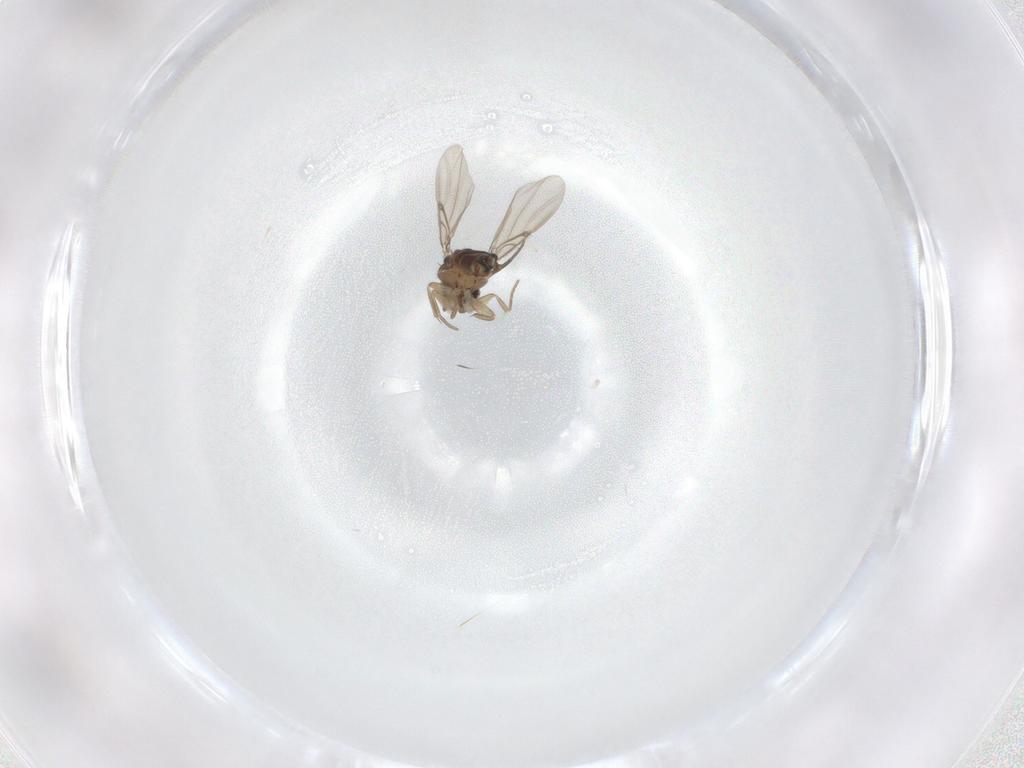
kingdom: Animalia
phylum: Arthropoda
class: Insecta
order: Diptera
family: Phoridae
